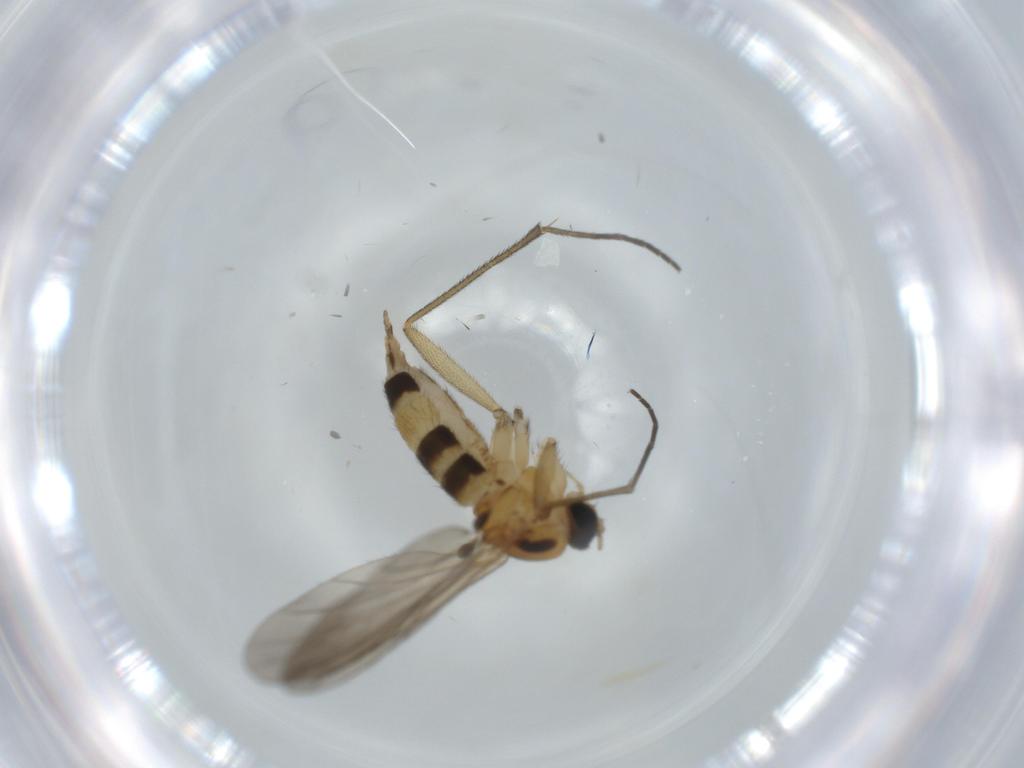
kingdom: Animalia
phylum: Arthropoda
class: Insecta
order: Diptera
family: Cecidomyiidae
